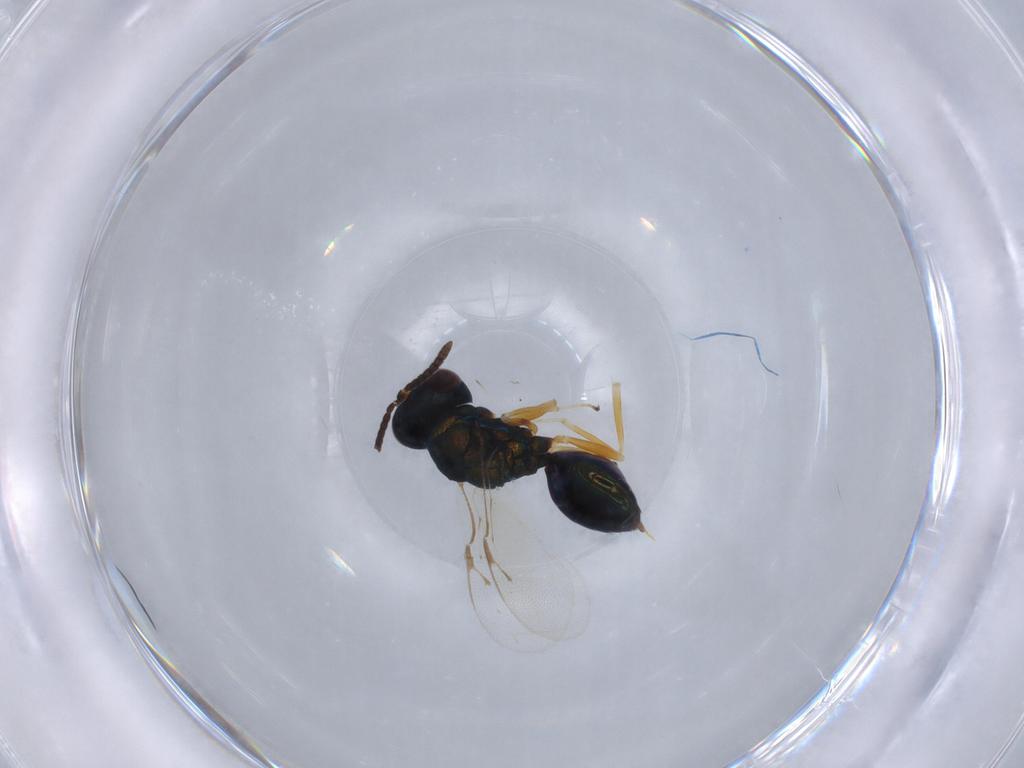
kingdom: Animalia
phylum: Arthropoda
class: Insecta
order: Hymenoptera
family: Pteromalidae
